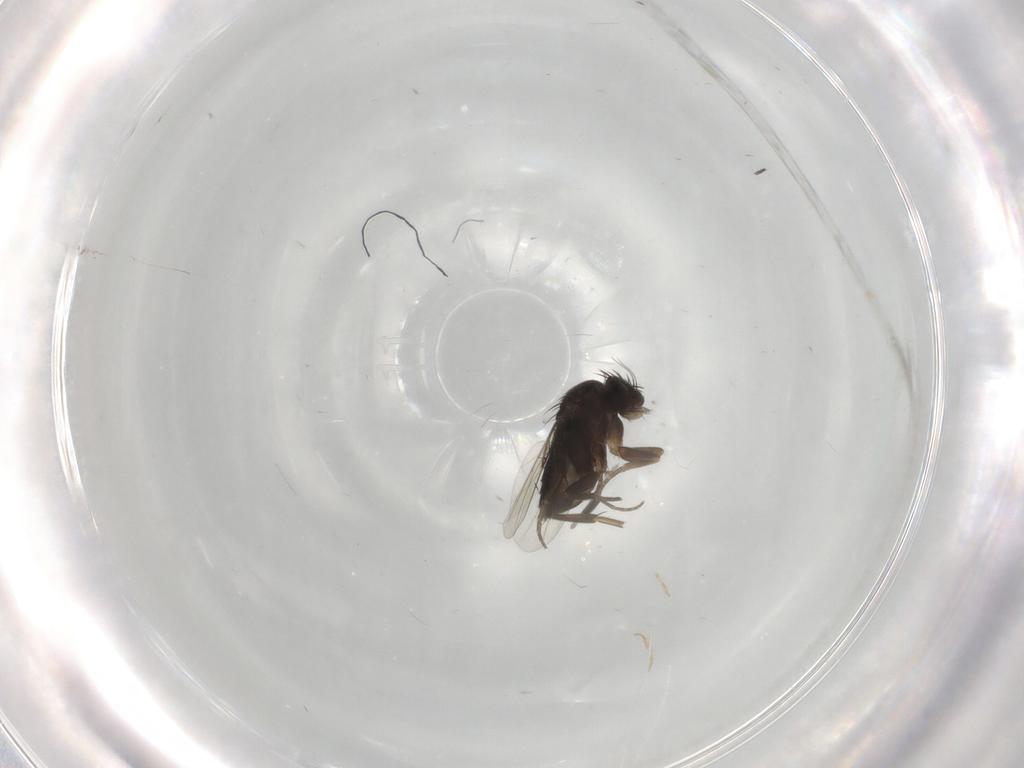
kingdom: Animalia
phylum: Arthropoda
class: Insecta
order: Diptera
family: Phoridae
